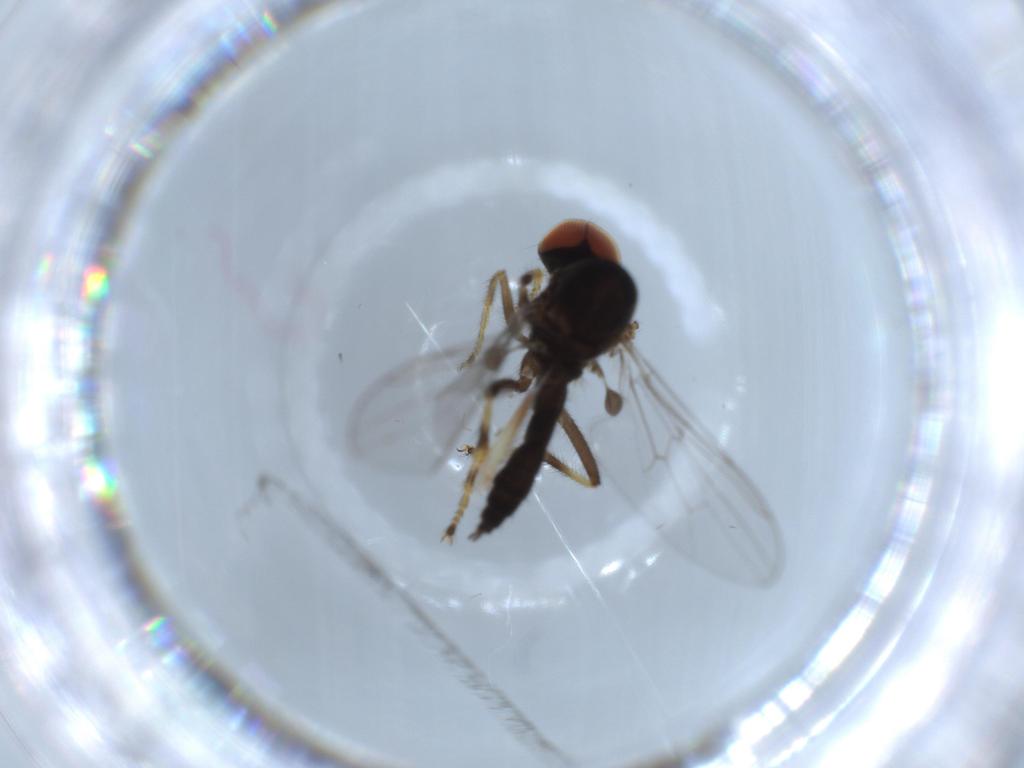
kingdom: Animalia
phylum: Arthropoda
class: Insecta
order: Diptera
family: Hybotidae
